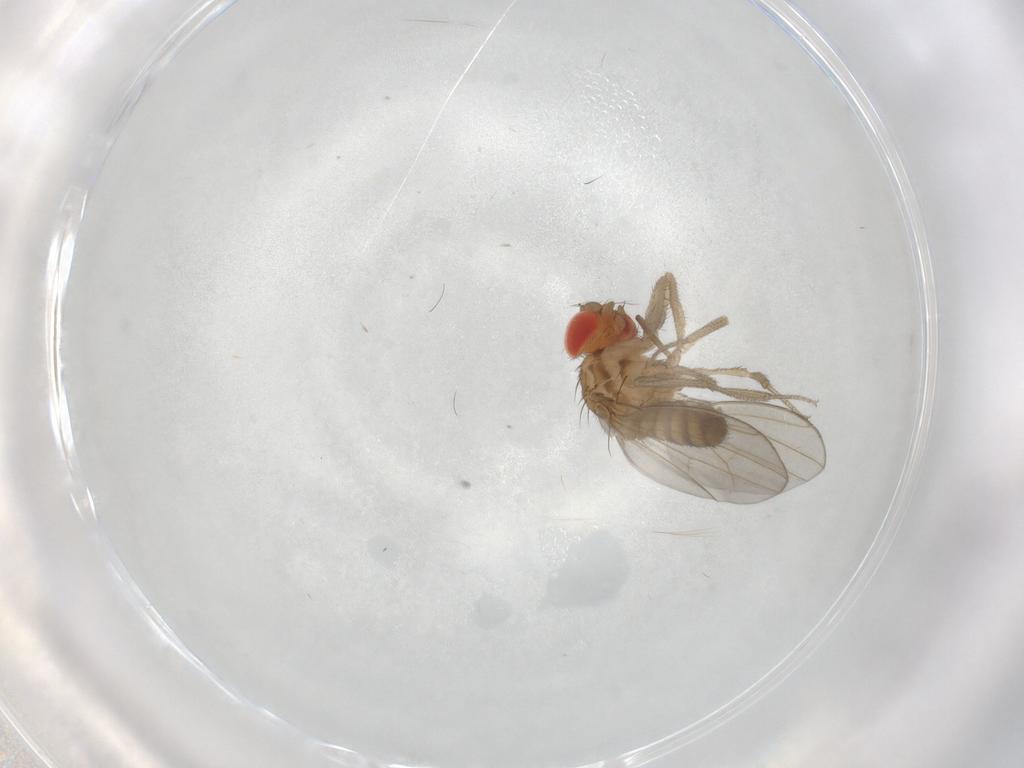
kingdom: Animalia
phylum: Arthropoda
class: Insecta
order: Diptera
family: Drosophilidae
